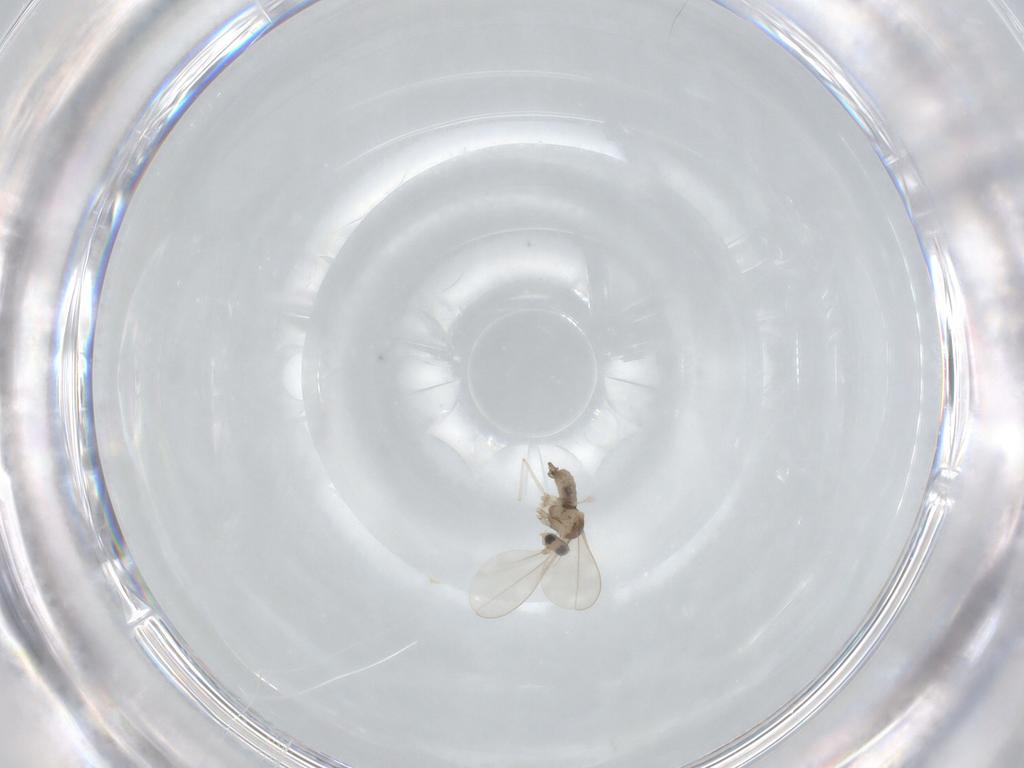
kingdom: Animalia
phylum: Arthropoda
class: Insecta
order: Diptera
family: Cecidomyiidae
